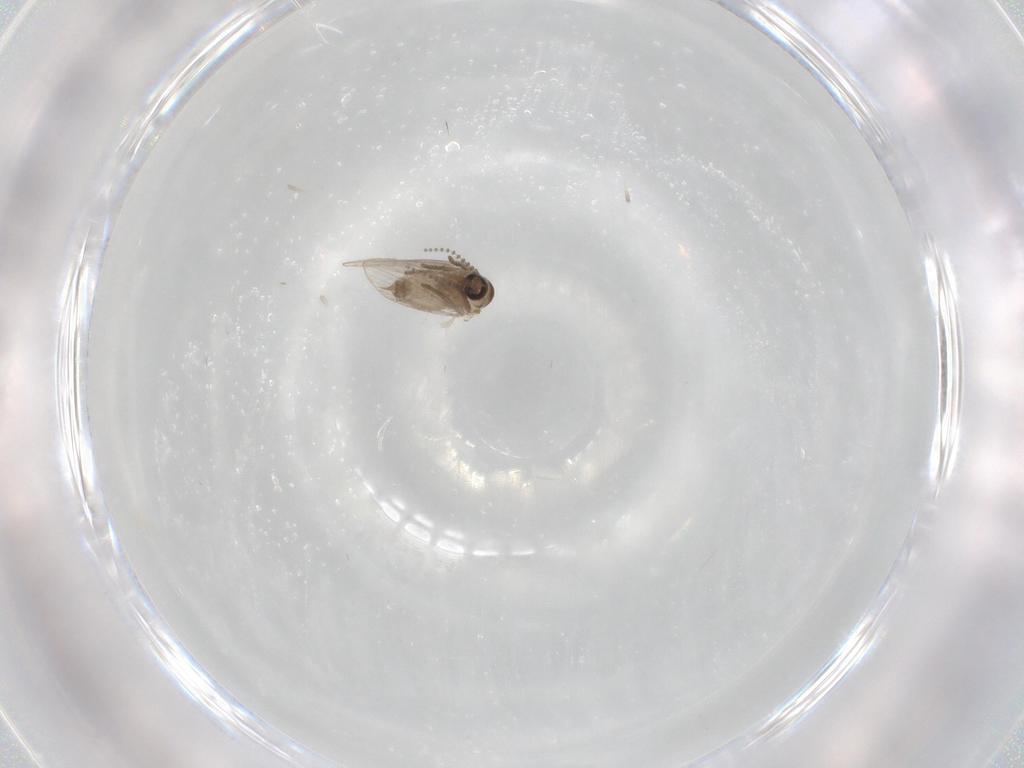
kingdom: Animalia
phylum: Arthropoda
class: Insecta
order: Diptera
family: Psychodidae
